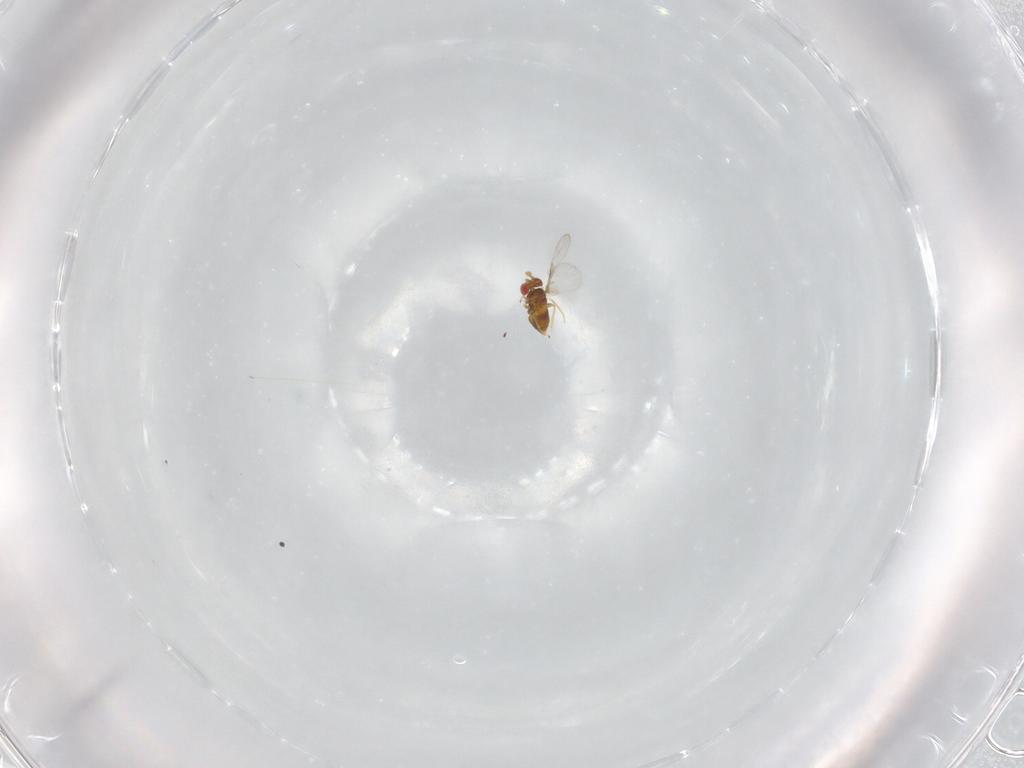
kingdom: Animalia
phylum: Arthropoda
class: Insecta
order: Hymenoptera
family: Trichogrammatidae
